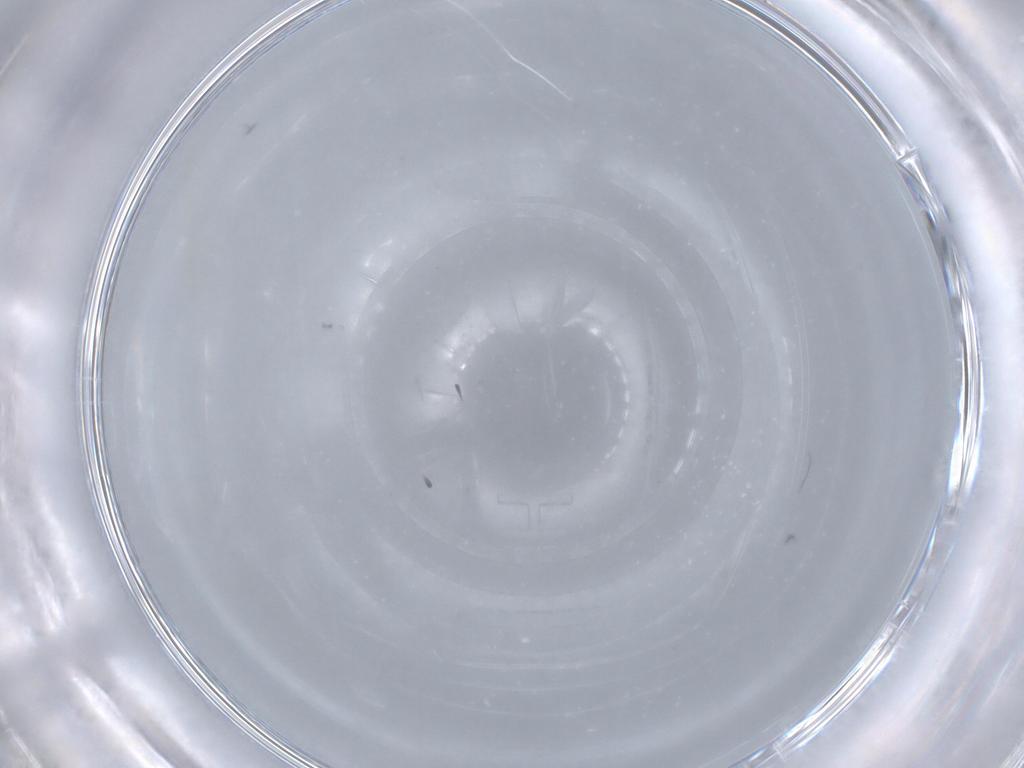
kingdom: Animalia
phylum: Arthropoda
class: Insecta
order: Diptera
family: Cecidomyiidae
